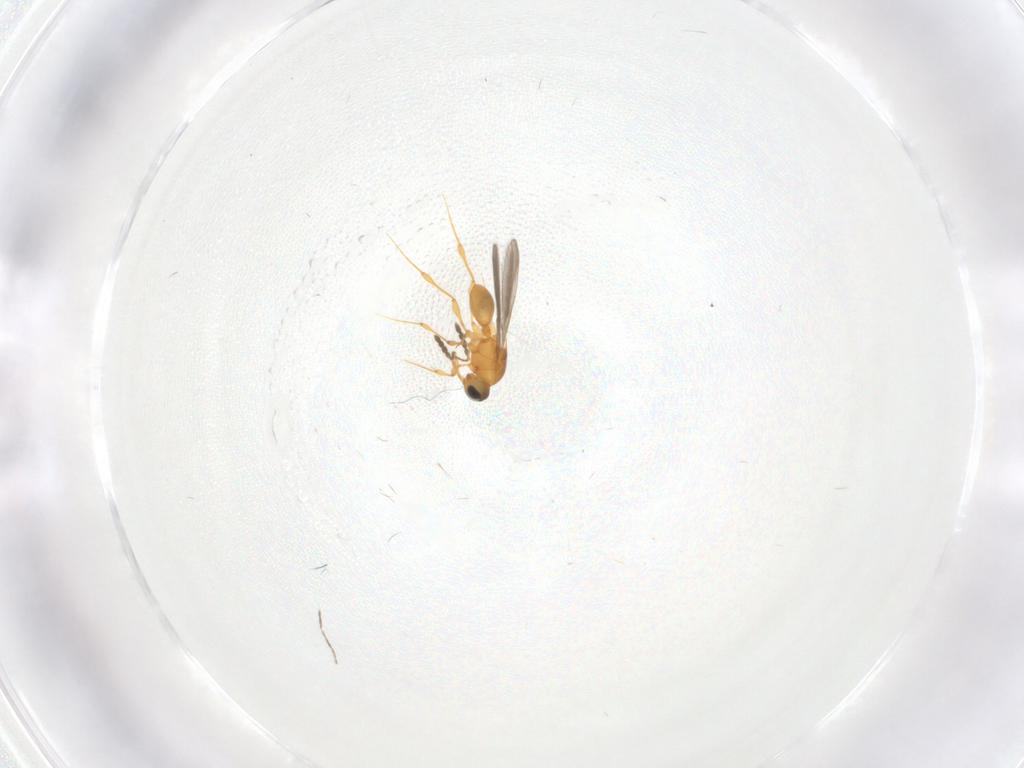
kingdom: Animalia
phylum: Arthropoda
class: Insecta
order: Hymenoptera
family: Platygastridae
